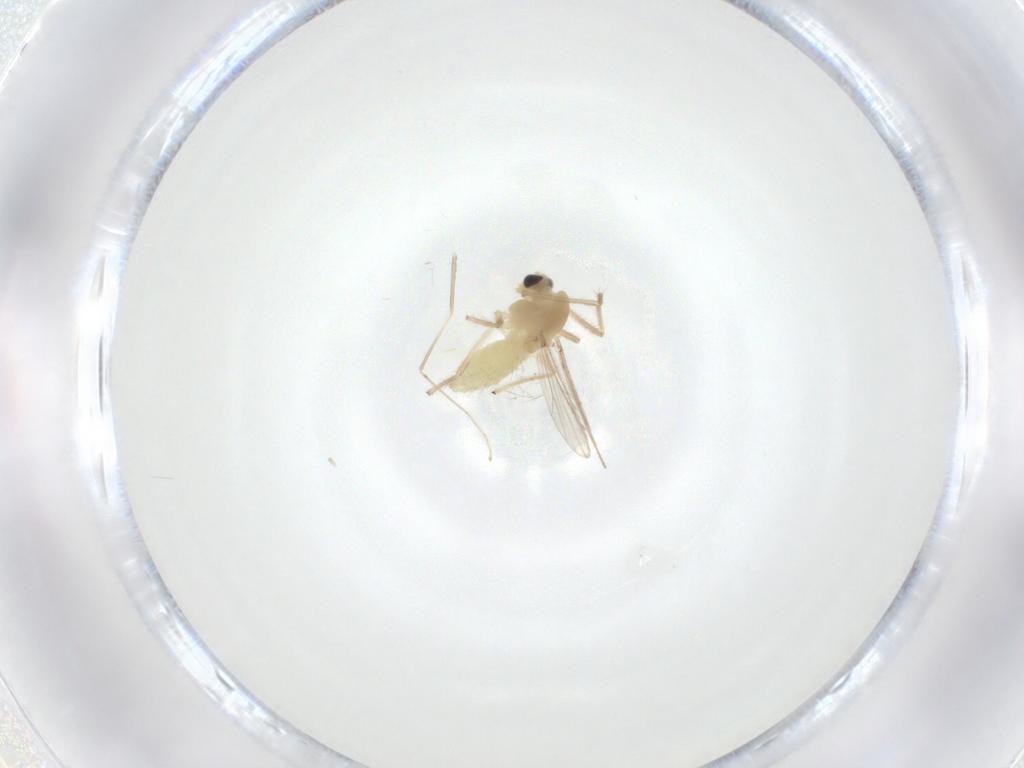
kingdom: Animalia
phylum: Arthropoda
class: Insecta
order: Diptera
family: Chironomidae
